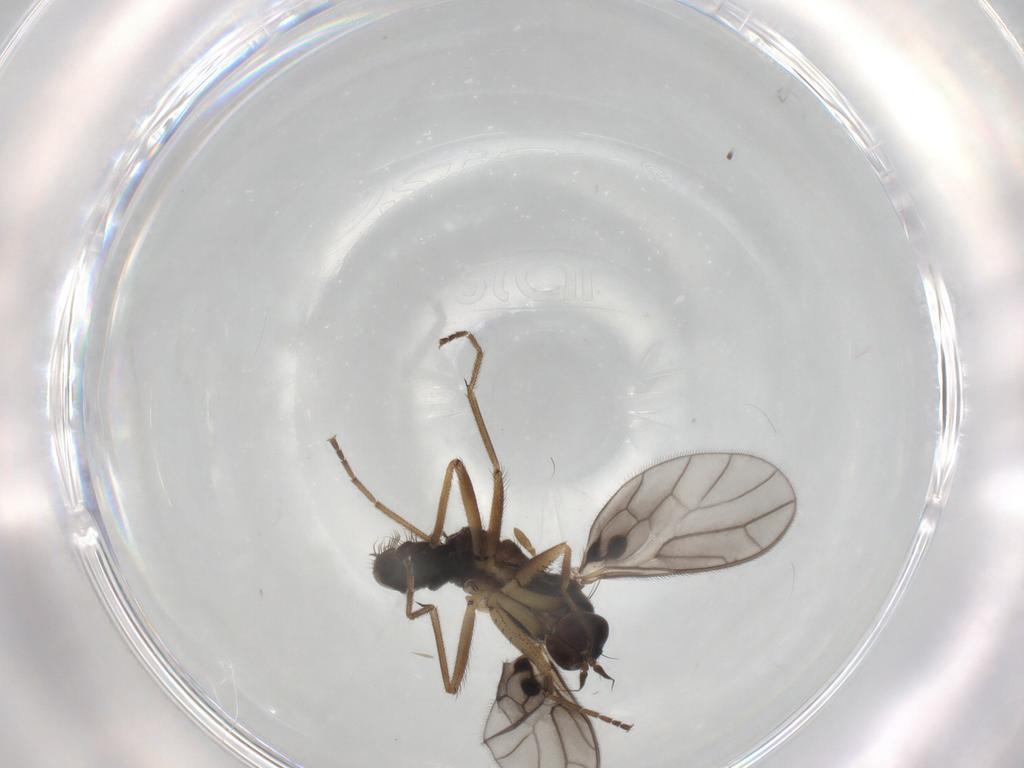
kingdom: Animalia
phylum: Arthropoda
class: Insecta
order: Diptera
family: Empididae
